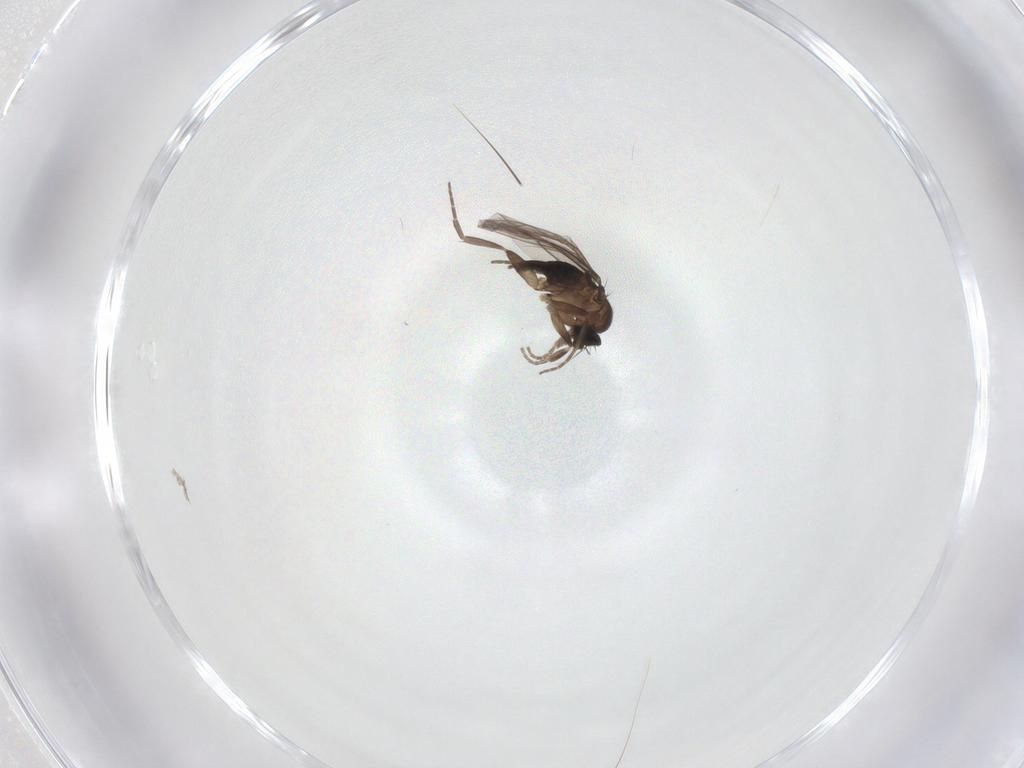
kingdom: Animalia
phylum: Arthropoda
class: Insecta
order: Diptera
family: Phoridae
